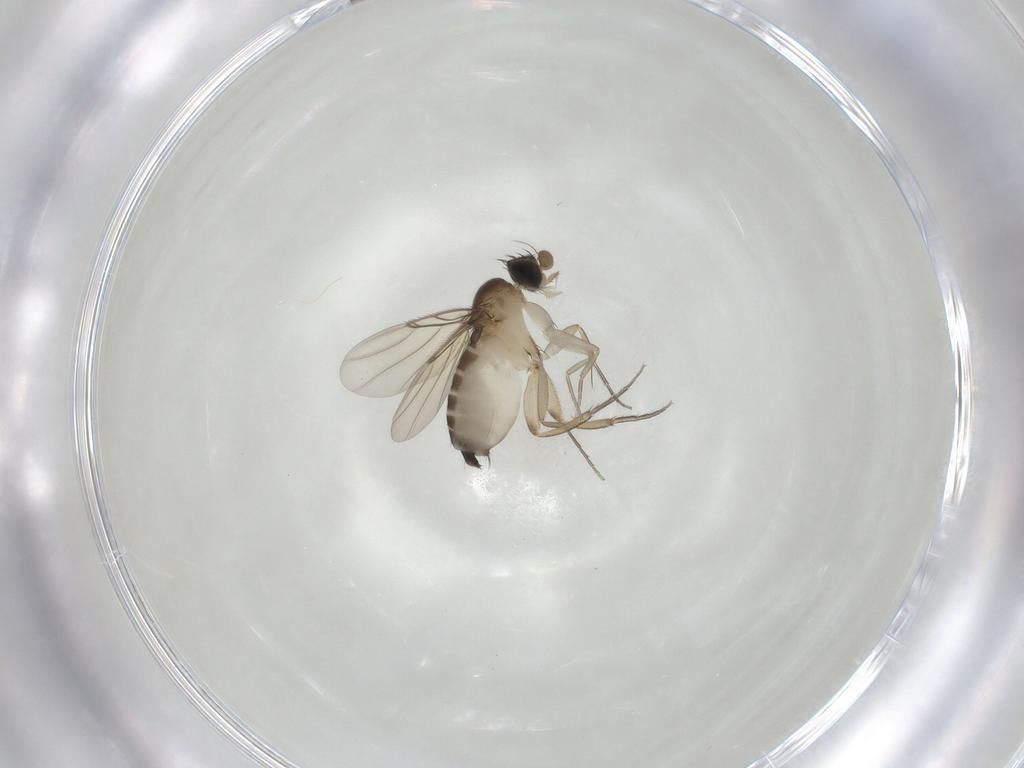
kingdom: Animalia
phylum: Arthropoda
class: Insecta
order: Diptera
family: Phoridae
